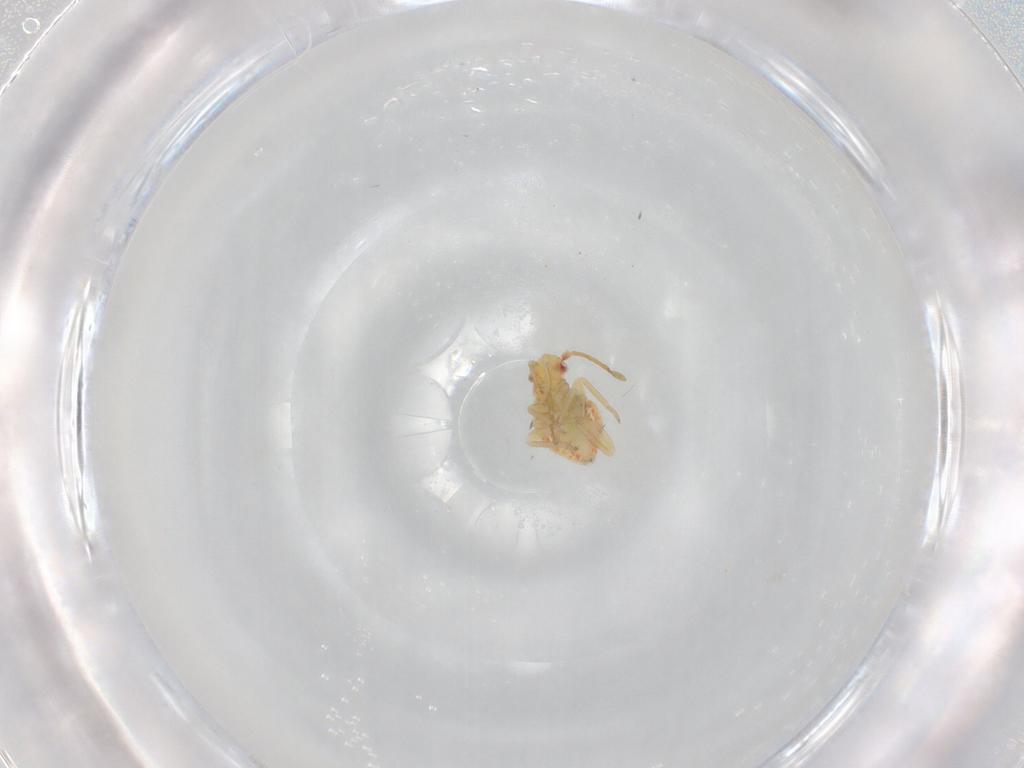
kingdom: Animalia
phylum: Arthropoda
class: Insecta
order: Hemiptera
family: Miridae
